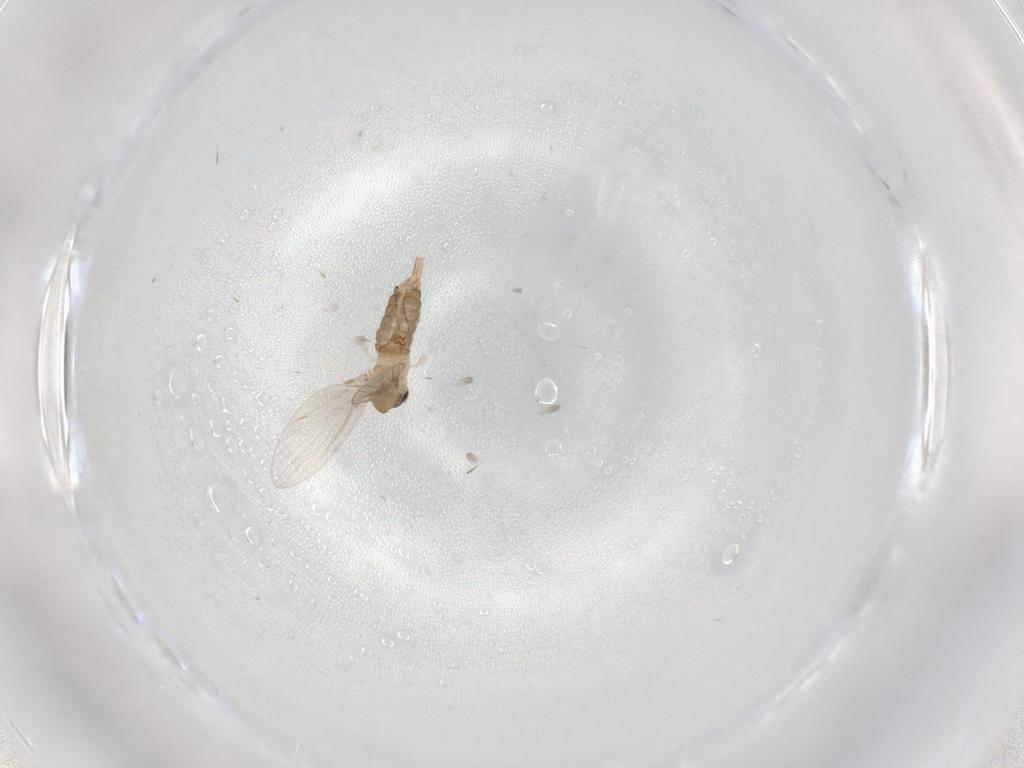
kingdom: Animalia
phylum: Arthropoda
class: Insecta
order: Diptera
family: Psychodidae
